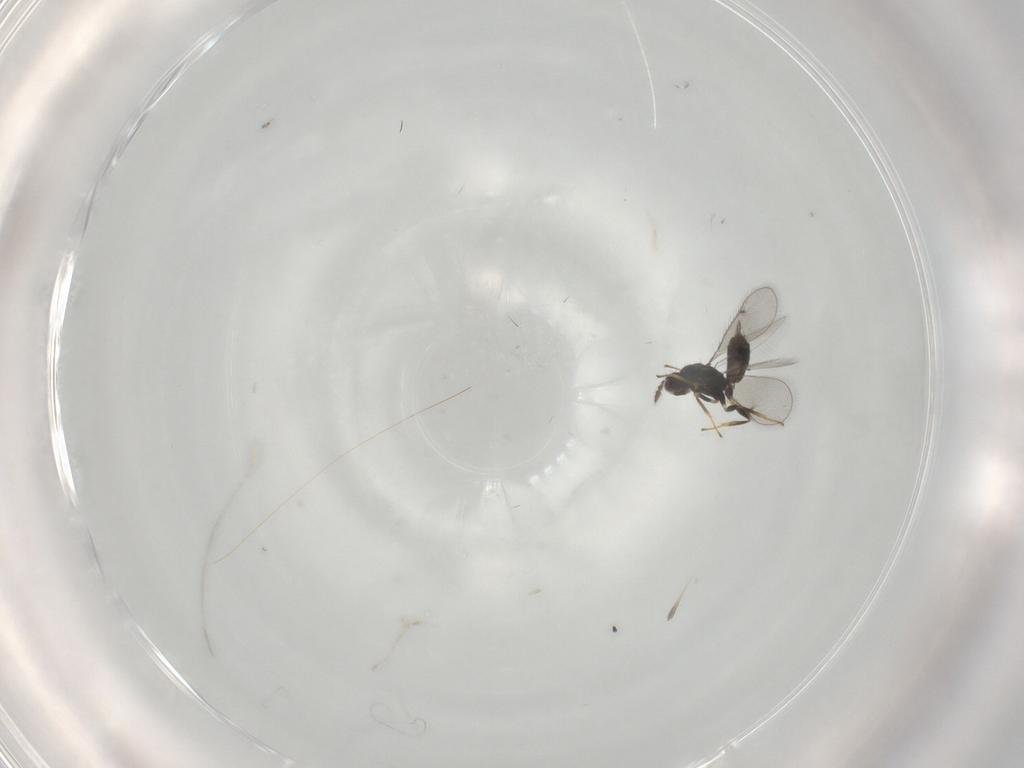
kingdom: Animalia
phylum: Arthropoda
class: Insecta
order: Hymenoptera
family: Eulophidae
